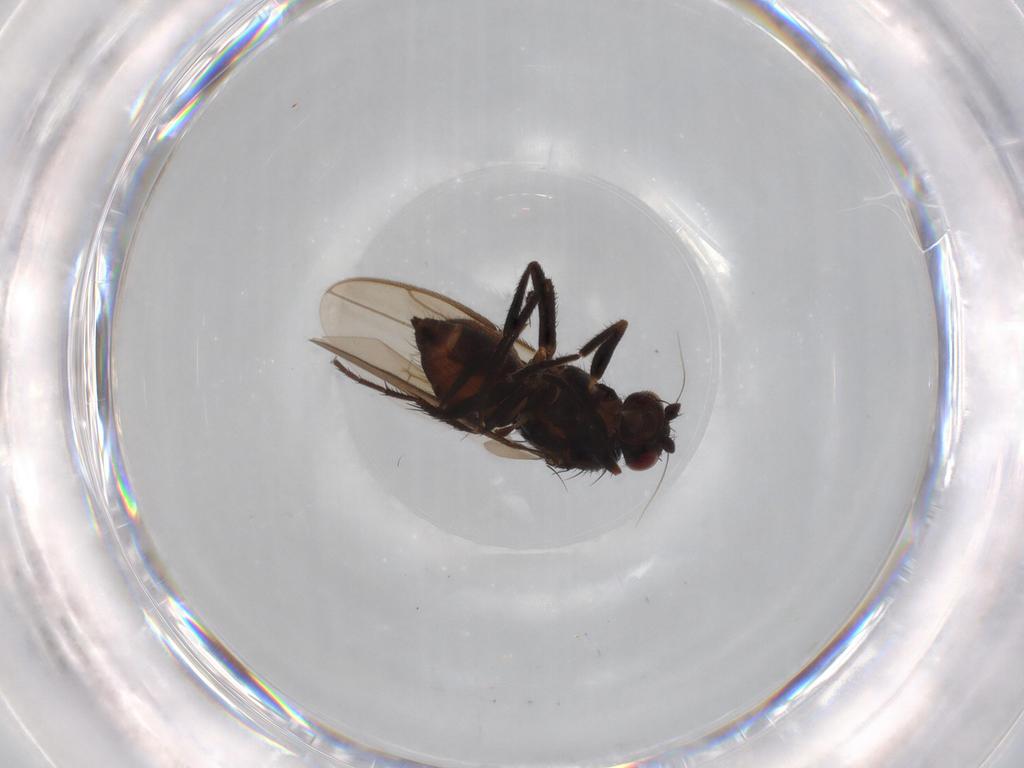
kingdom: Animalia
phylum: Arthropoda
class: Insecta
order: Diptera
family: Sphaeroceridae
